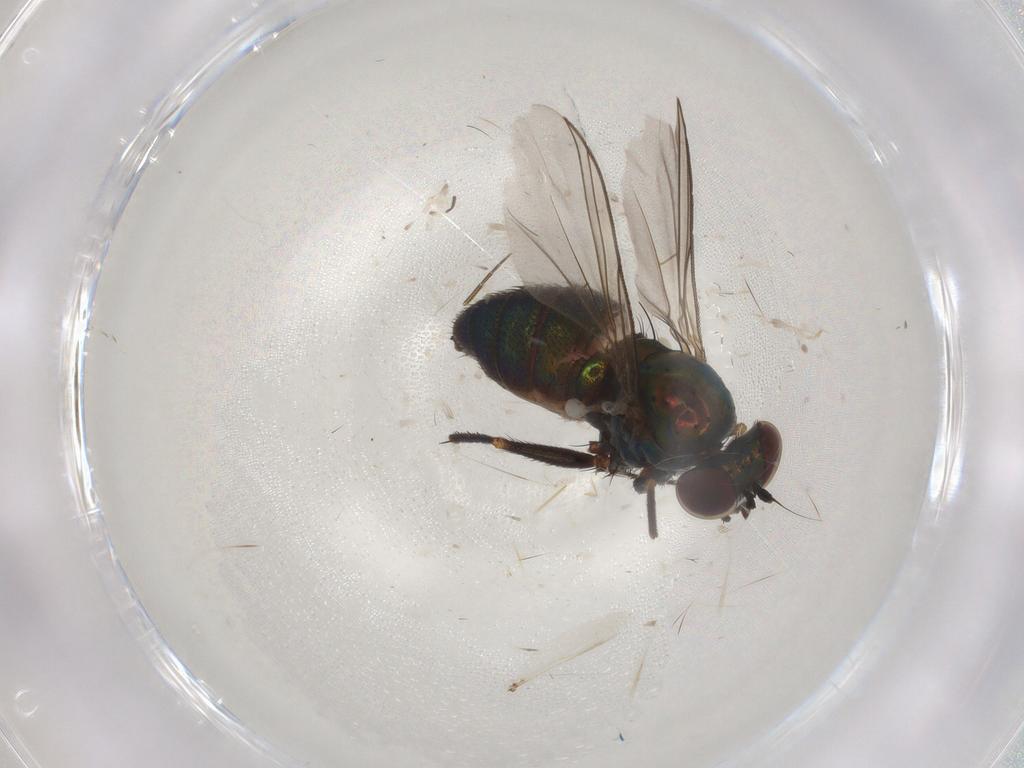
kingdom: Animalia
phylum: Arthropoda
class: Insecta
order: Diptera
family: Dolichopodidae
